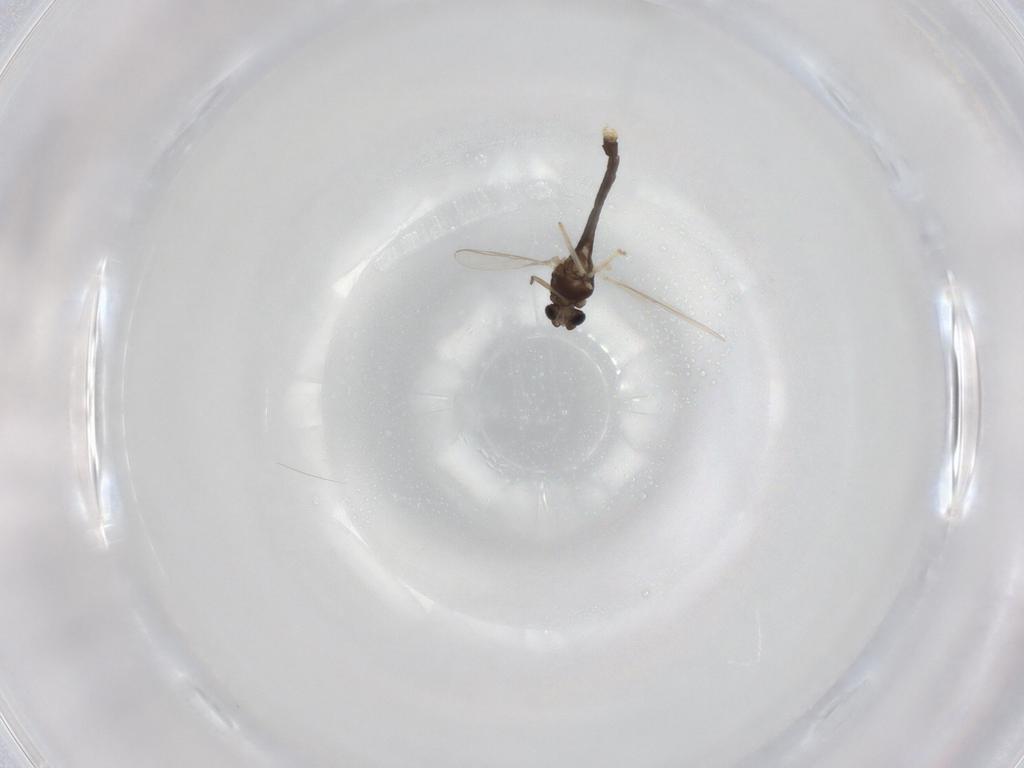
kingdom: Animalia
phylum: Arthropoda
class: Insecta
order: Diptera
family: Chironomidae
